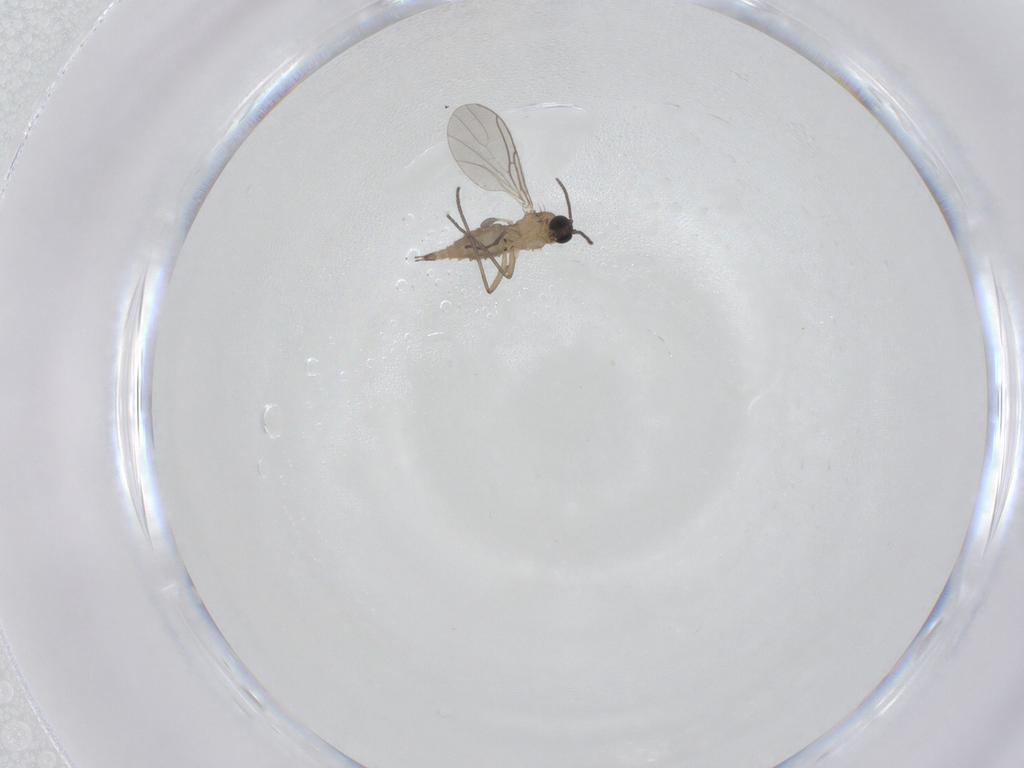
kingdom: Animalia
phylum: Arthropoda
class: Insecta
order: Diptera
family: Sciaridae
